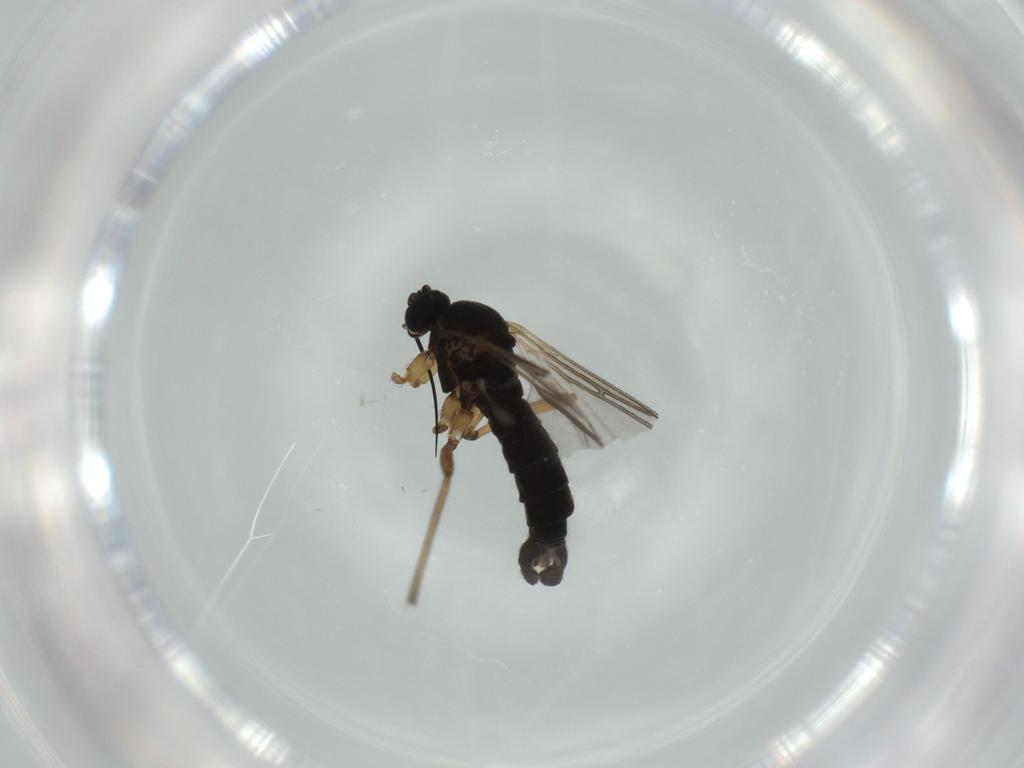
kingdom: Animalia
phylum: Arthropoda
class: Insecta
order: Diptera
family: Sciaridae
